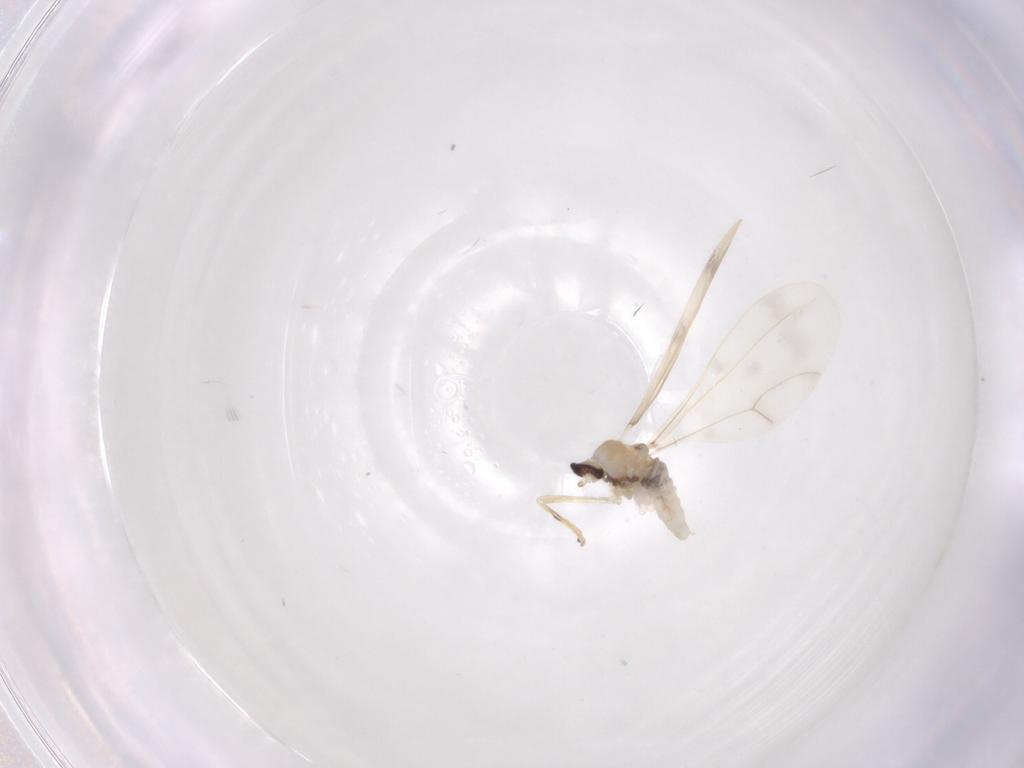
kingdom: Animalia
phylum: Arthropoda
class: Insecta
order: Diptera
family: Cecidomyiidae
